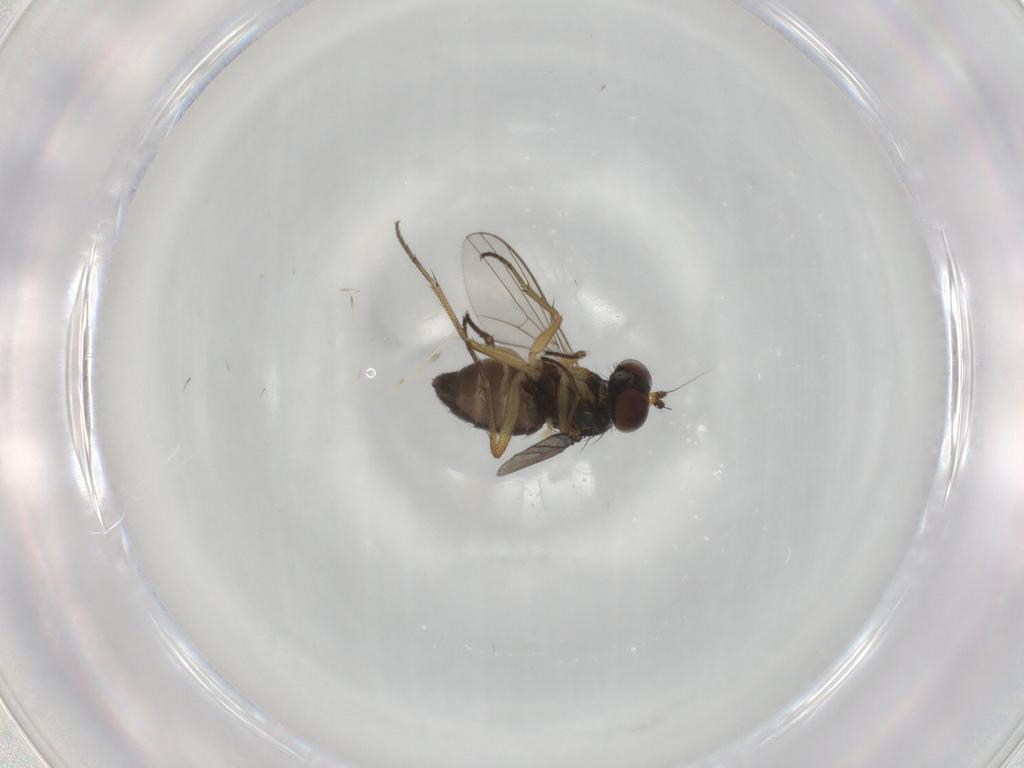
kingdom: Animalia
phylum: Arthropoda
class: Insecta
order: Diptera
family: Dolichopodidae
